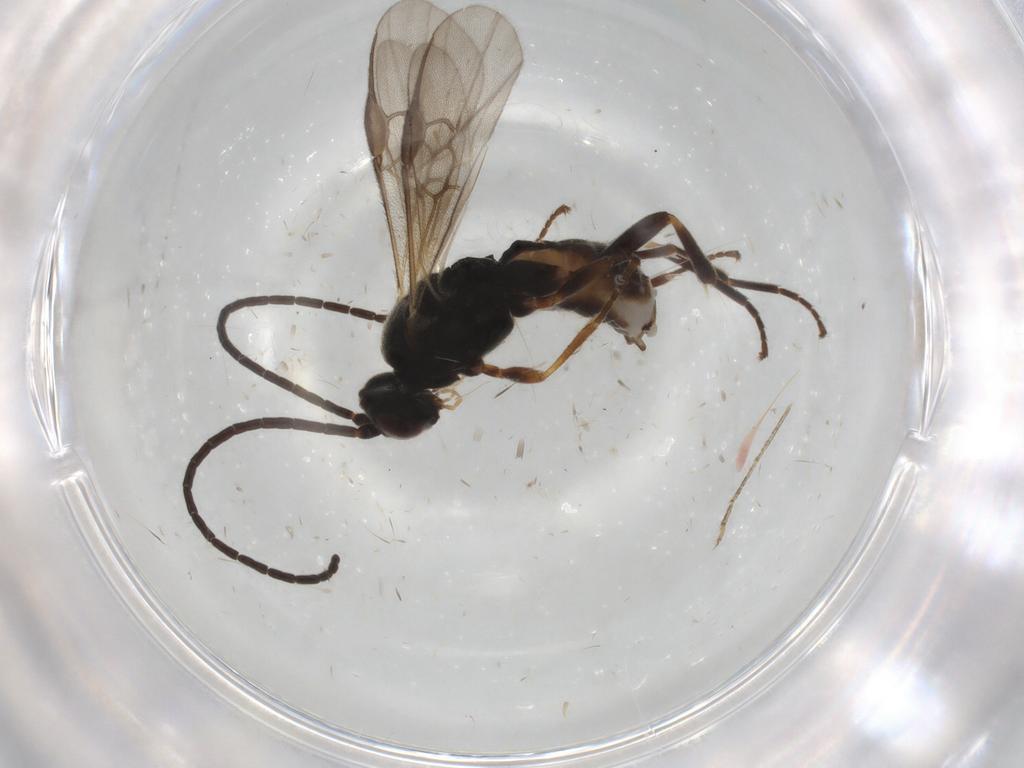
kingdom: Animalia
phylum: Arthropoda
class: Insecta
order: Hymenoptera
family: Braconidae
